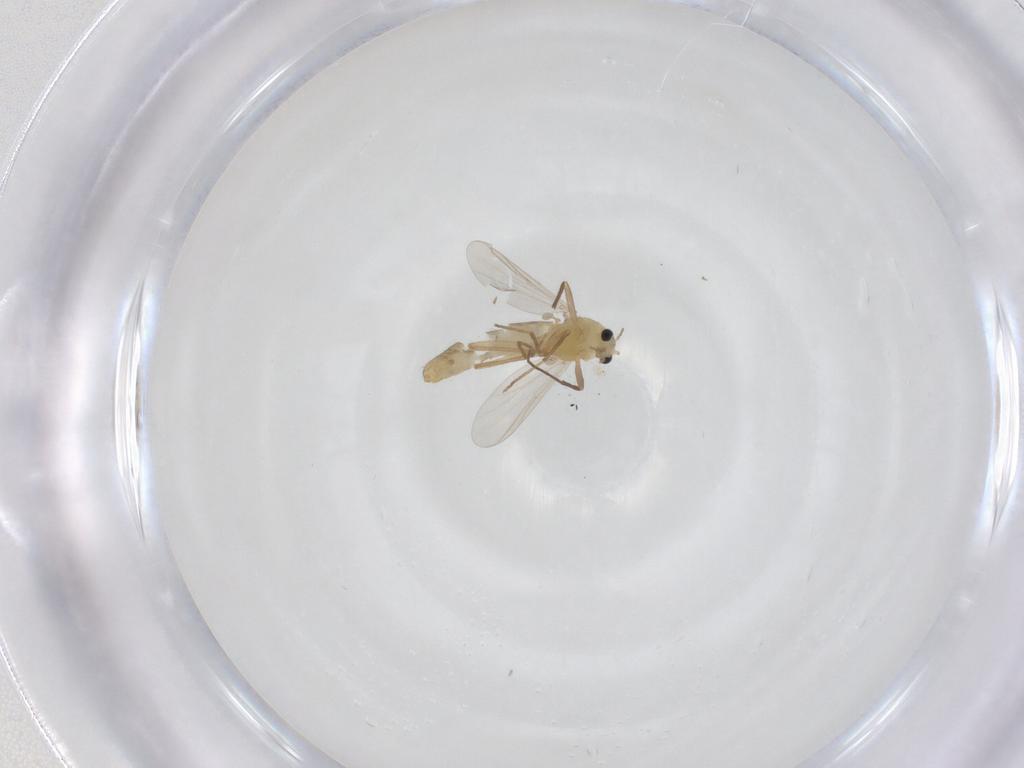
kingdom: Animalia
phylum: Arthropoda
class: Insecta
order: Diptera
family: Chironomidae
